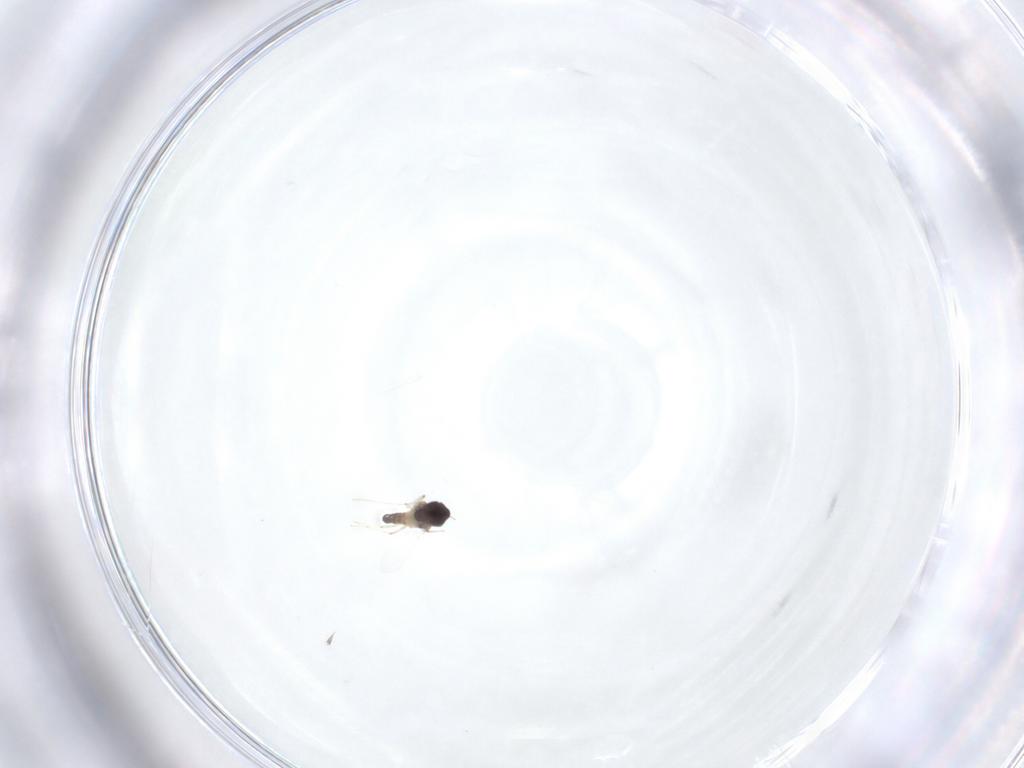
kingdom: Animalia
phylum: Arthropoda
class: Insecta
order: Diptera
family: Chironomidae
